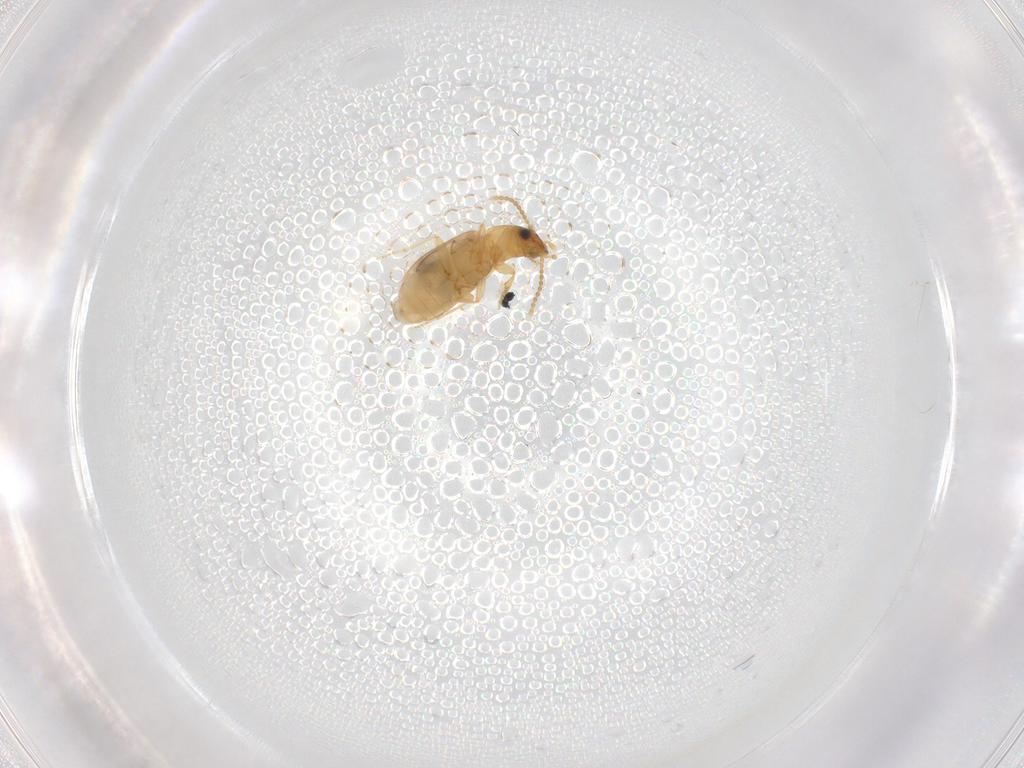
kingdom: Animalia
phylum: Arthropoda
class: Insecta
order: Coleoptera
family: Carabidae
